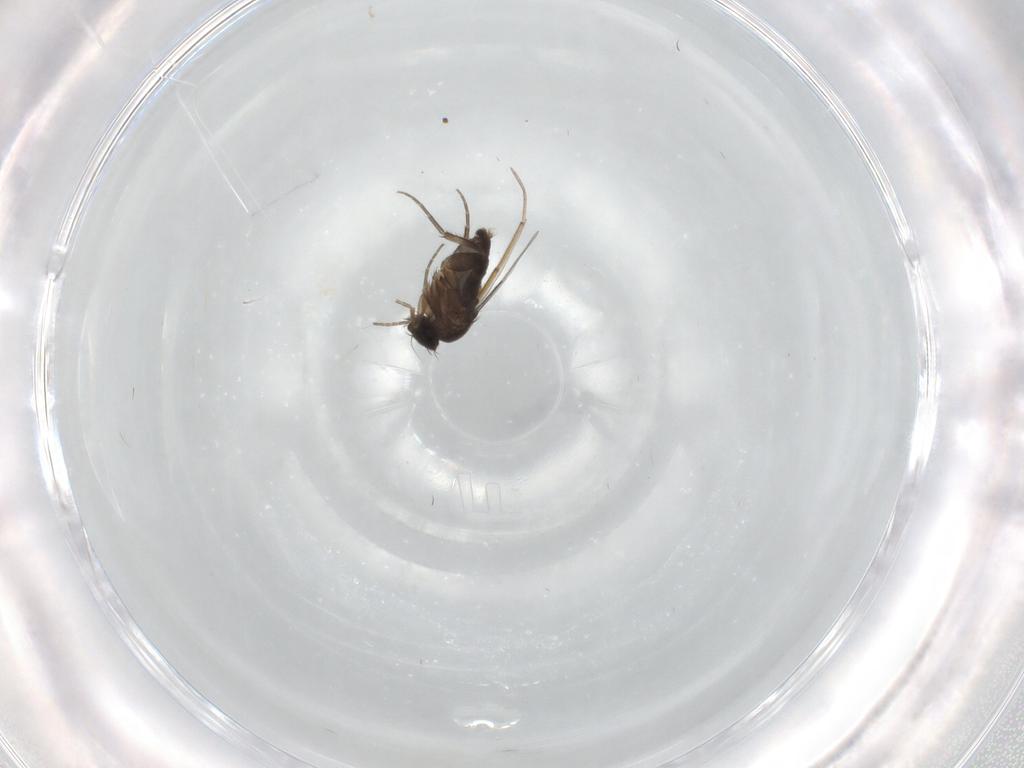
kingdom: Animalia
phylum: Arthropoda
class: Insecta
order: Diptera
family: Phoridae
